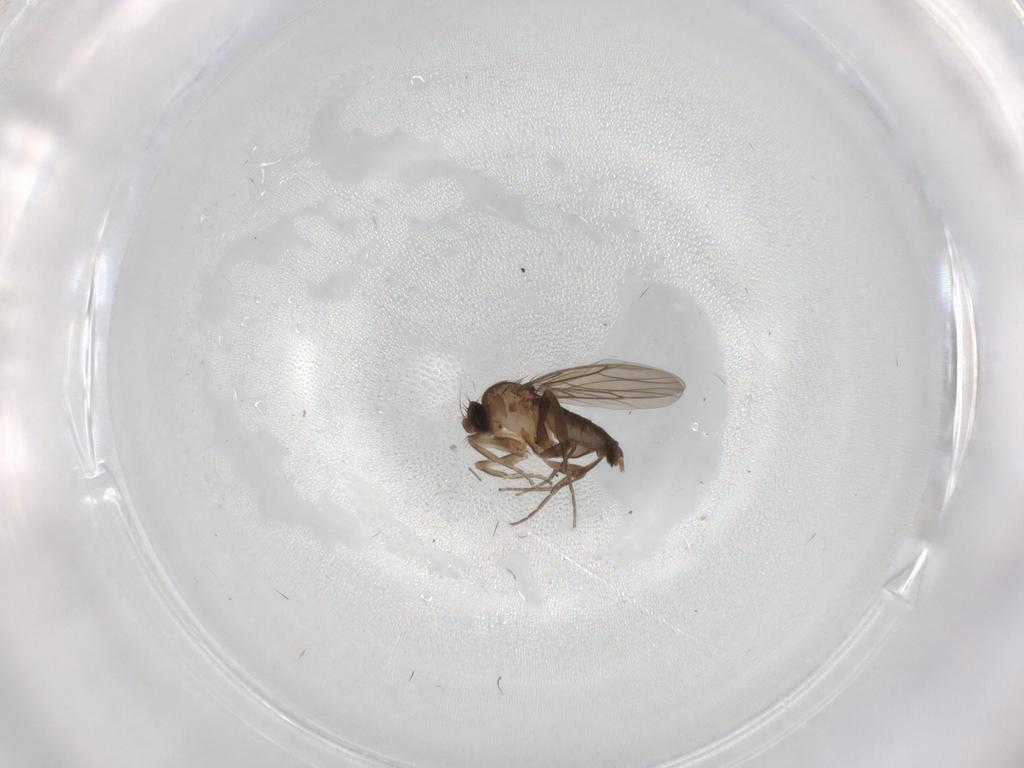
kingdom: Animalia
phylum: Arthropoda
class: Insecta
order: Diptera
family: Phoridae
